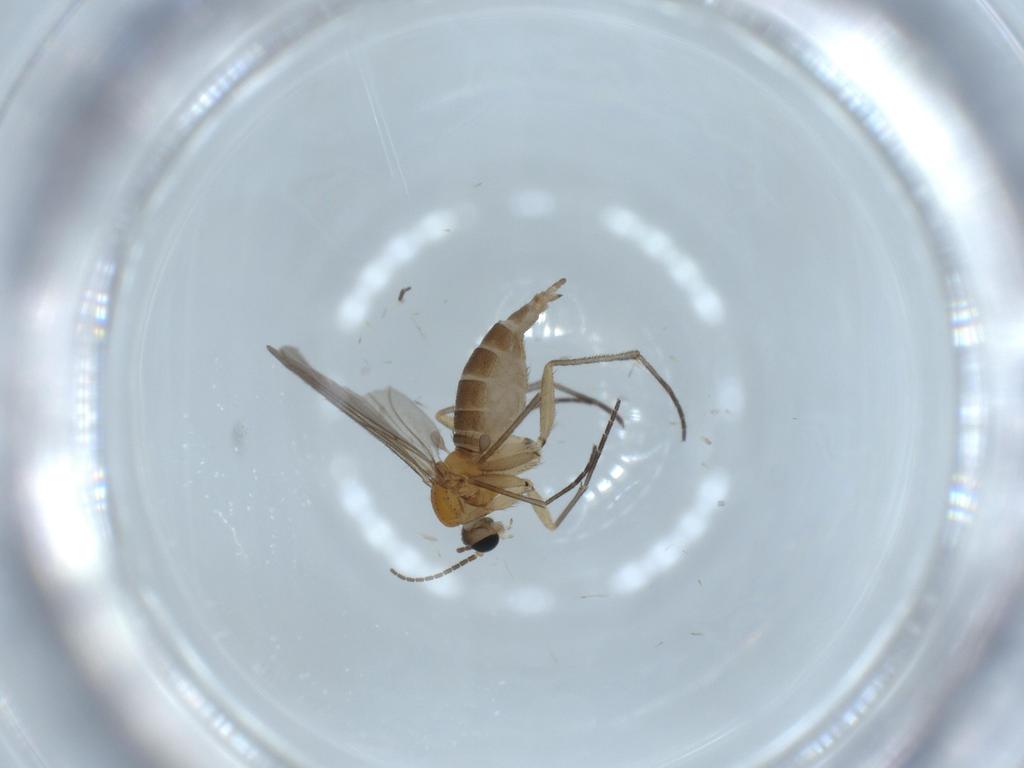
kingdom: Animalia
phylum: Arthropoda
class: Insecta
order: Diptera
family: Sciaridae
